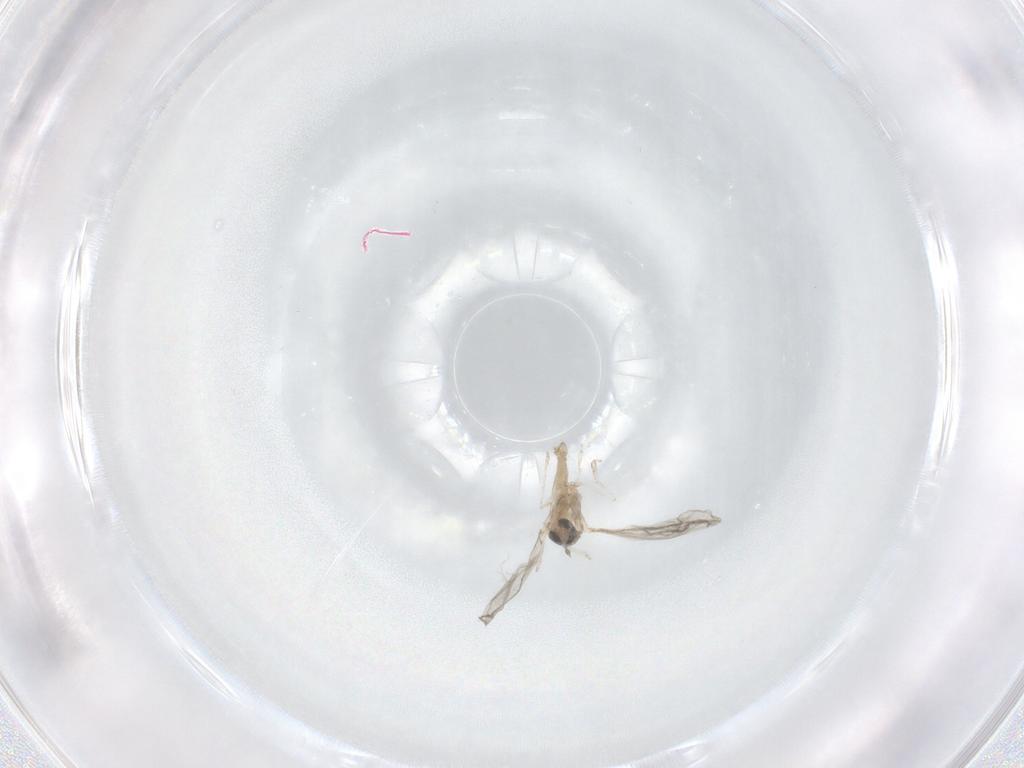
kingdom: Animalia
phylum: Arthropoda
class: Insecta
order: Diptera
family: Cecidomyiidae
